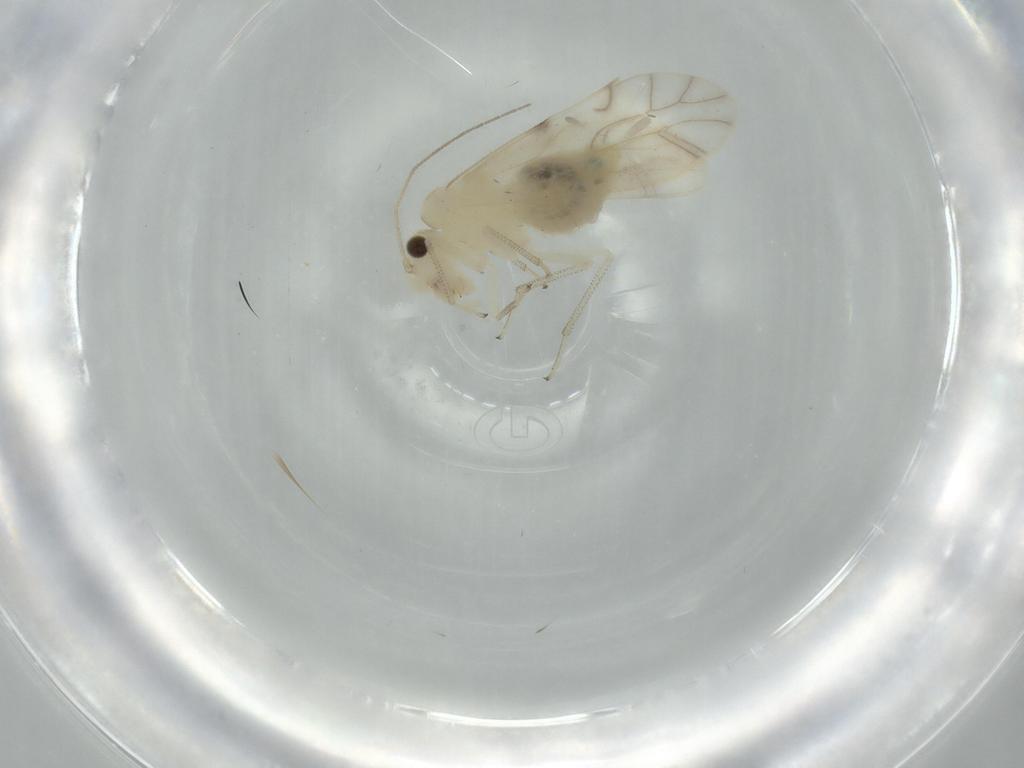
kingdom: Animalia
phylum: Arthropoda
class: Insecta
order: Psocodea
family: Caeciliusidae
